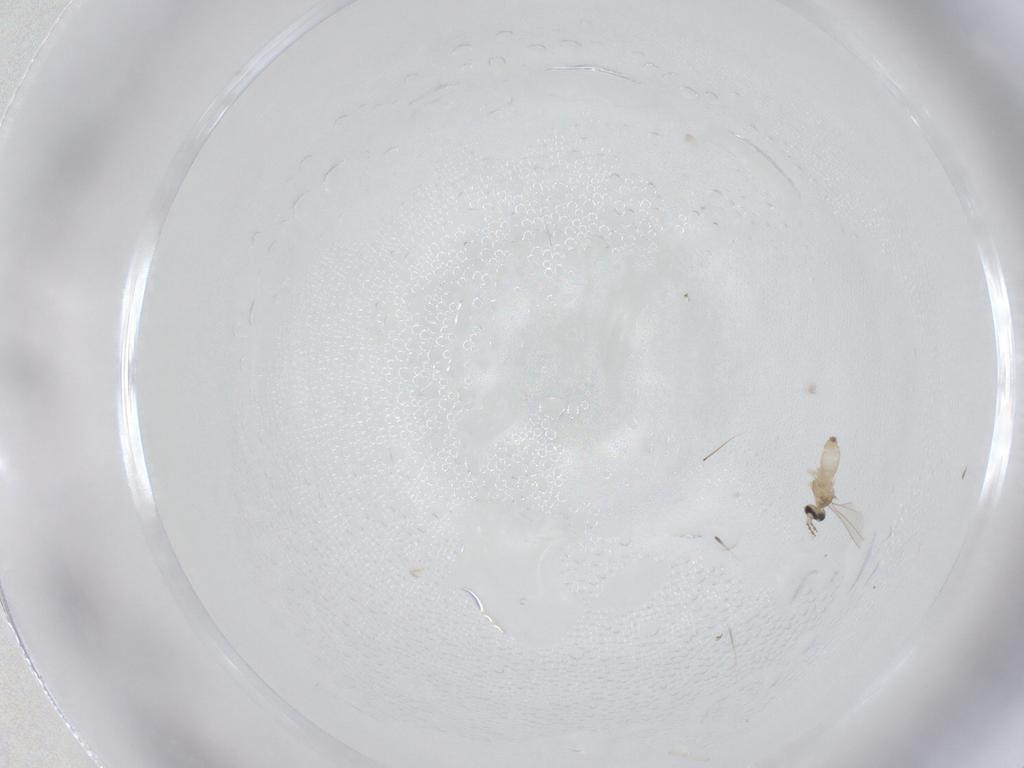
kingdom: Animalia
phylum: Arthropoda
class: Insecta
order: Diptera
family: Cecidomyiidae
